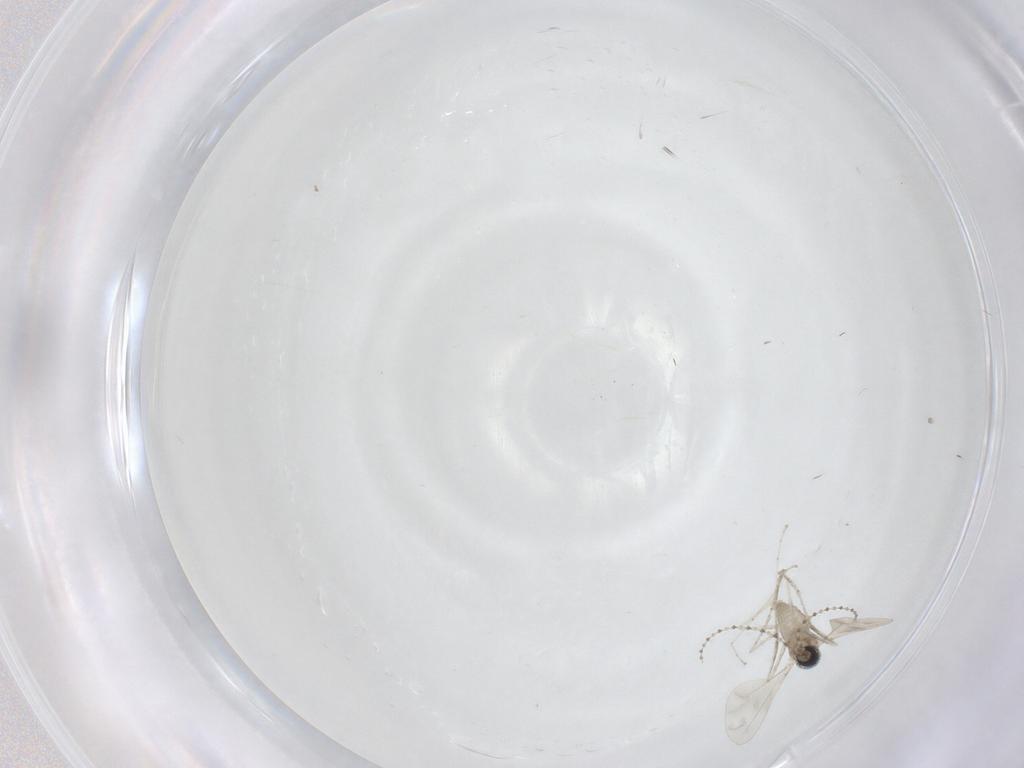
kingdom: Animalia
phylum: Arthropoda
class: Insecta
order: Diptera
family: Cecidomyiidae
